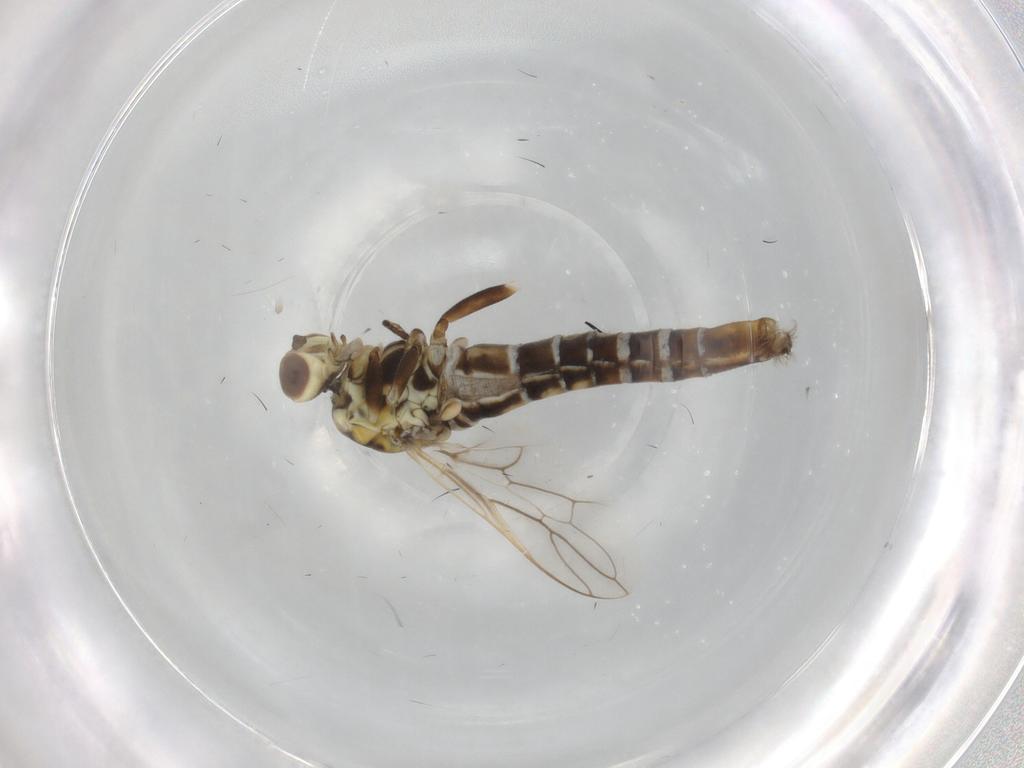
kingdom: Animalia
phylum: Arthropoda
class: Insecta
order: Diptera
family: Scenopinidae
